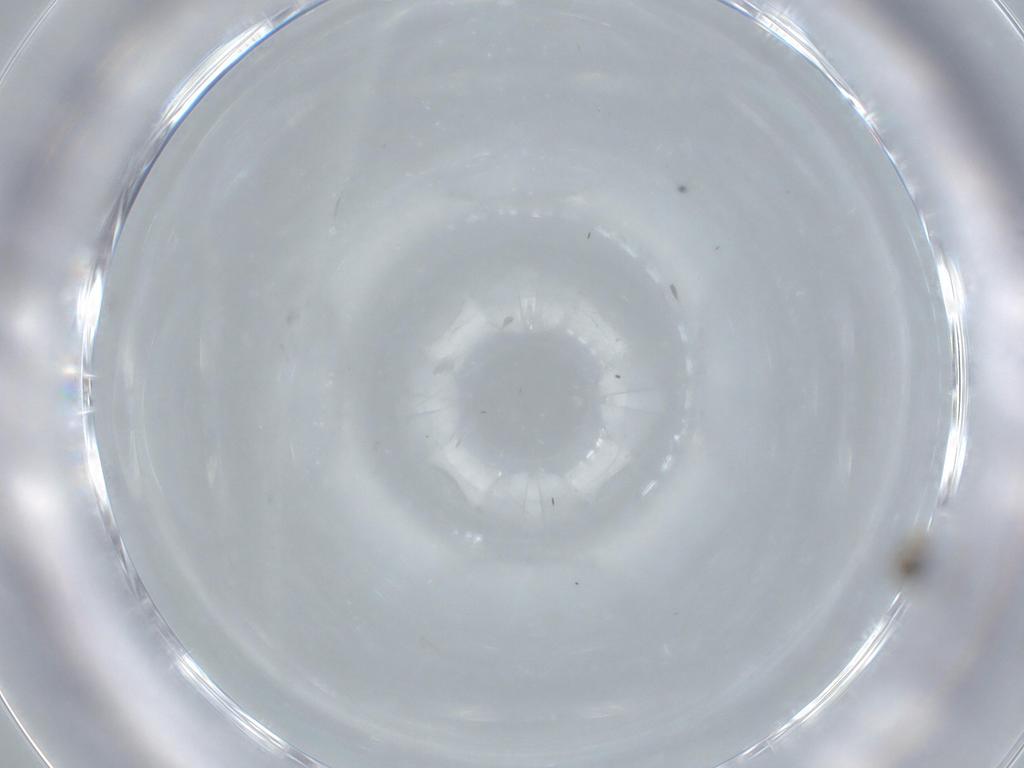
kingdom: Animalia
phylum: Arthropoda
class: Insecta
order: Diptera
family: Cecidomyiidae
